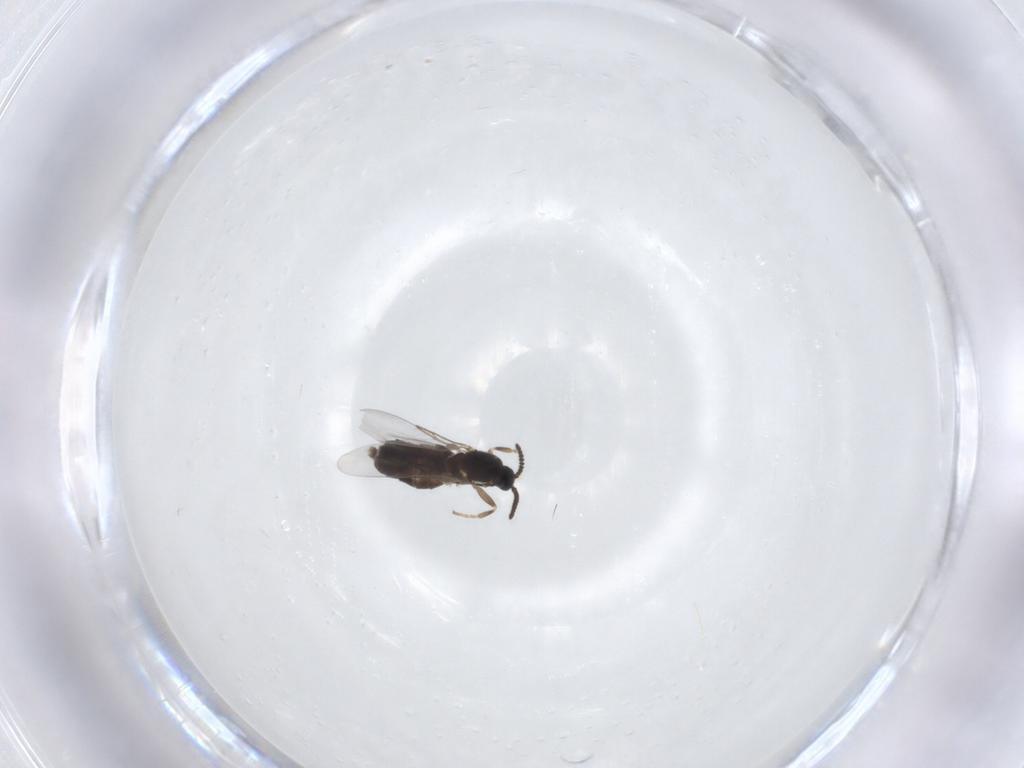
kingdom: Animalia
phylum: Arthropoda
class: Insecta
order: Diptera
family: Scatopsidae
